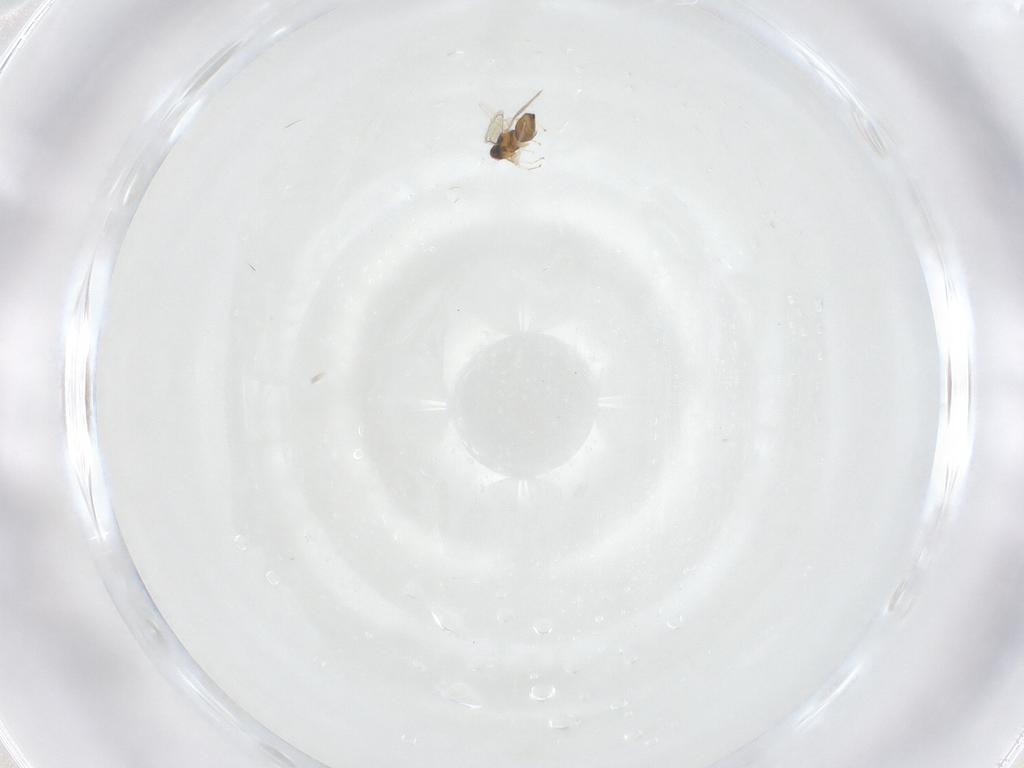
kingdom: Animalia
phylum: Arthropoda
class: Insecta
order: Hymenoptera
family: Eulophidae
